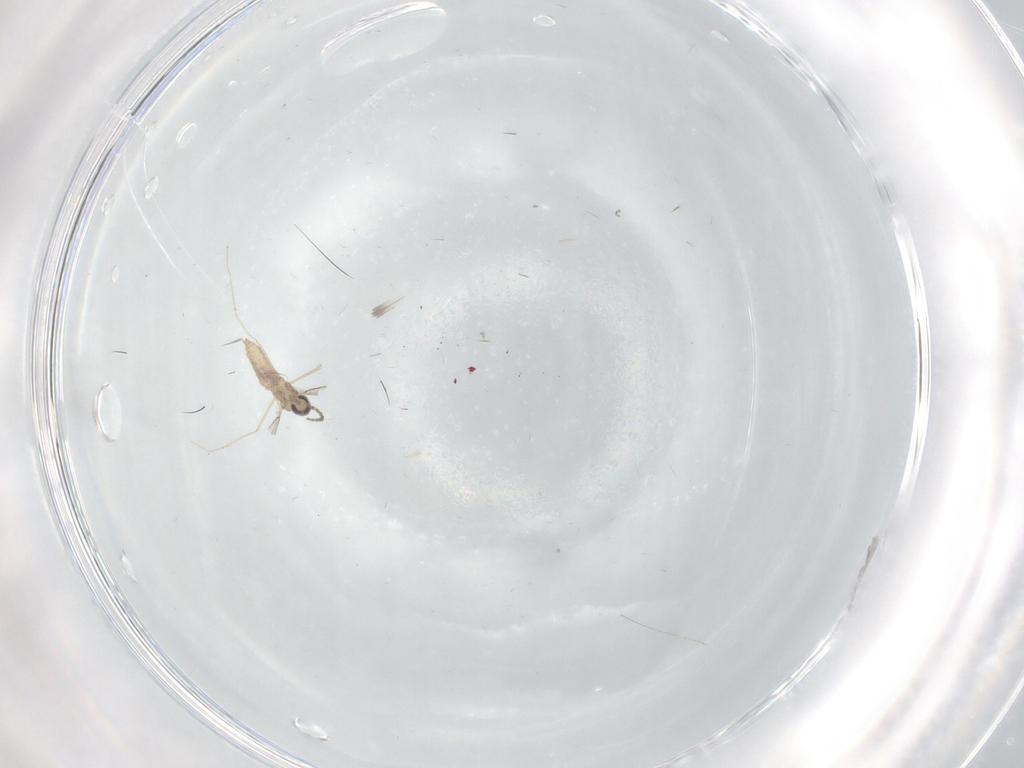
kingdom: Animalia
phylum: Arthropoda
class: Insecta
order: Diptera
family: Cecidomyiidae
